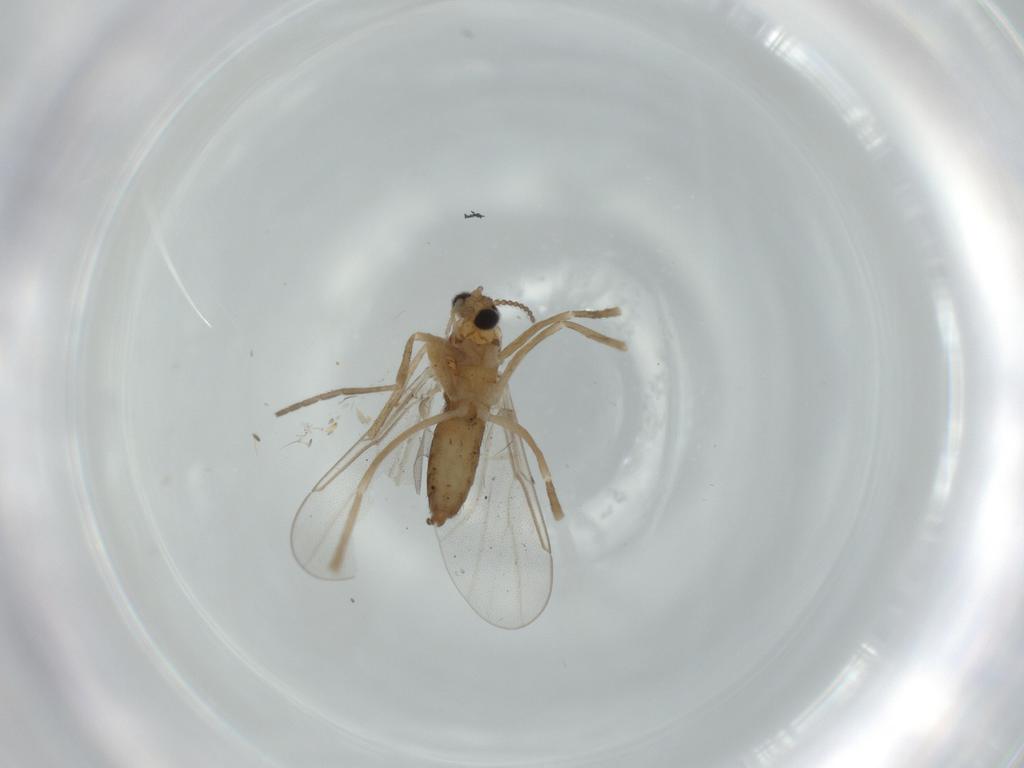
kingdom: Animalia
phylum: Arthropoda
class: Insecta
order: Diptera
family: Cecidomyiidae
